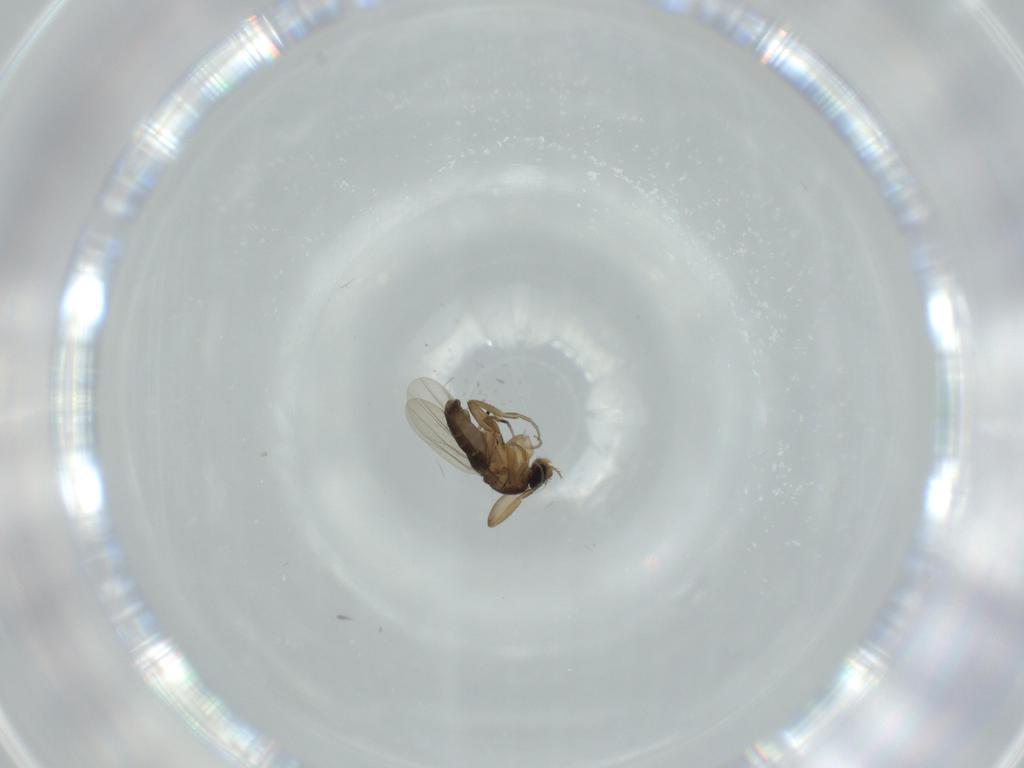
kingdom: Animalia
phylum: Arthropoda
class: Insecta
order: Diptera
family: Phoridae
